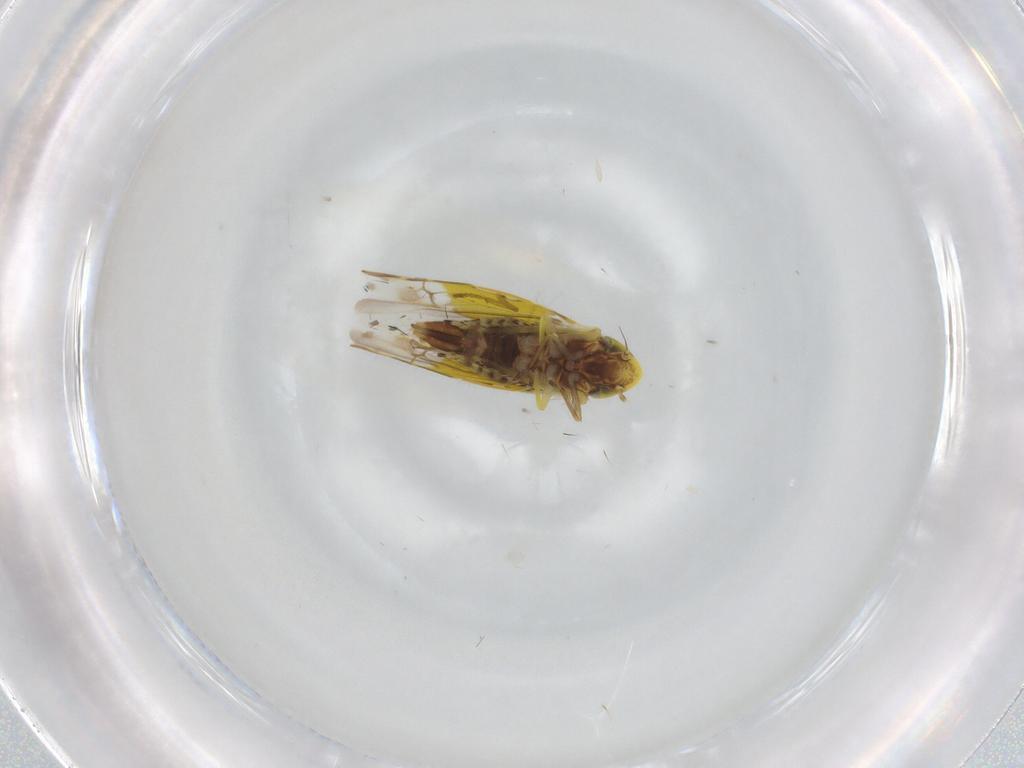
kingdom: Animalia
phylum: Arthropoda
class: Insecta
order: Hemiptera
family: Cicadellidae
